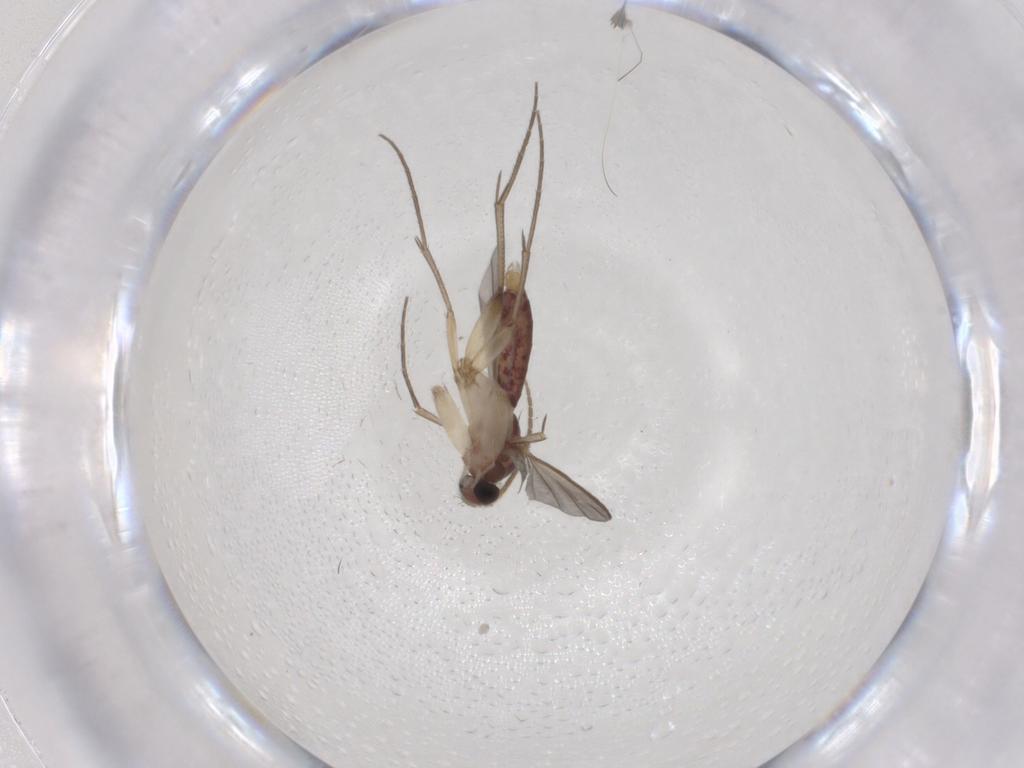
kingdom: Animalia
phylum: Arthropoda
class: Insecta
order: Diptera
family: Mycetophilidae
